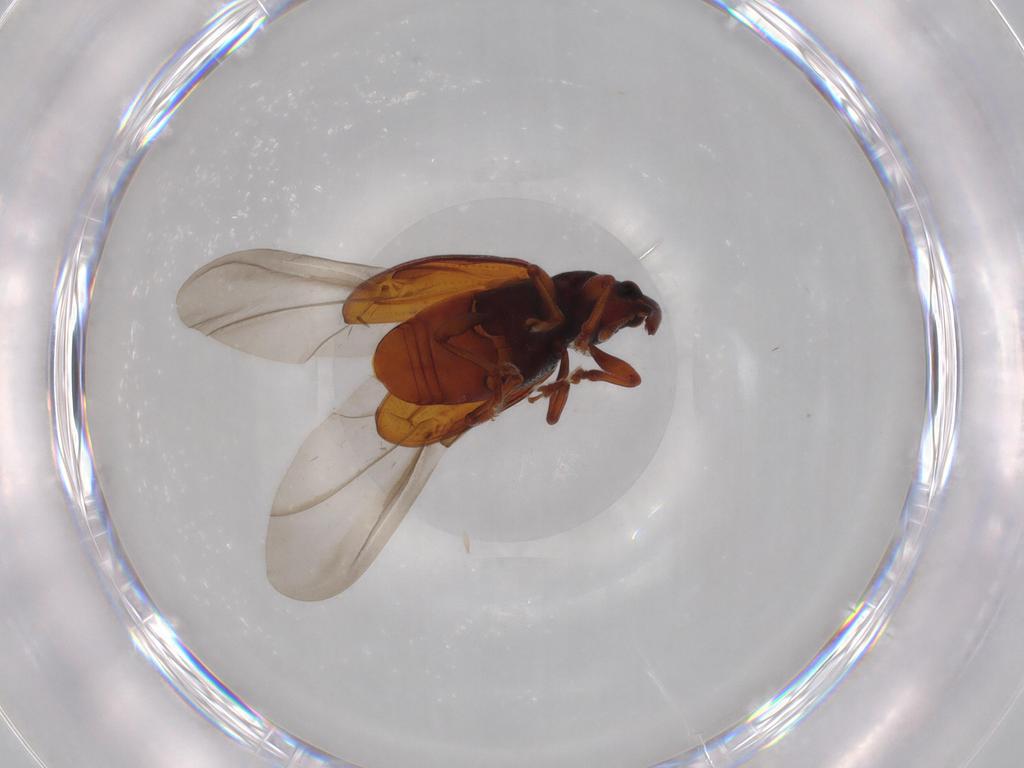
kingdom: Animalia
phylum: Arthropoda
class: Insecta
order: Coleoptera
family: Curculionidae
